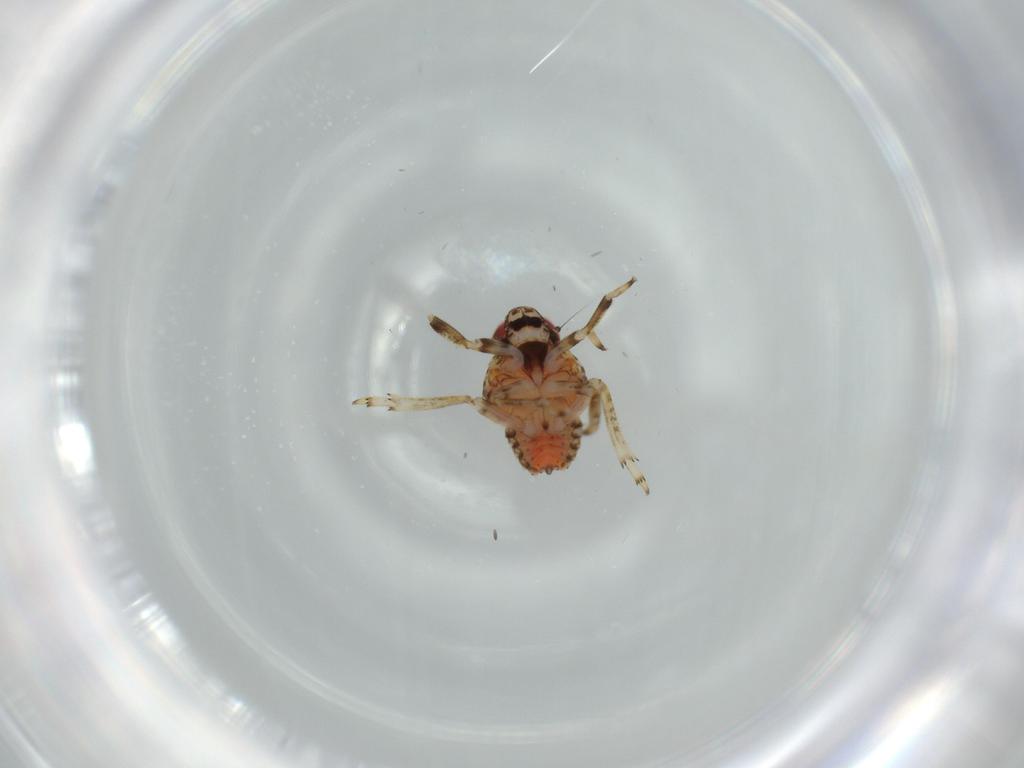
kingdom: Animalia
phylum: Arthropoda
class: Insecta
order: Hemiptera
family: Issidae
